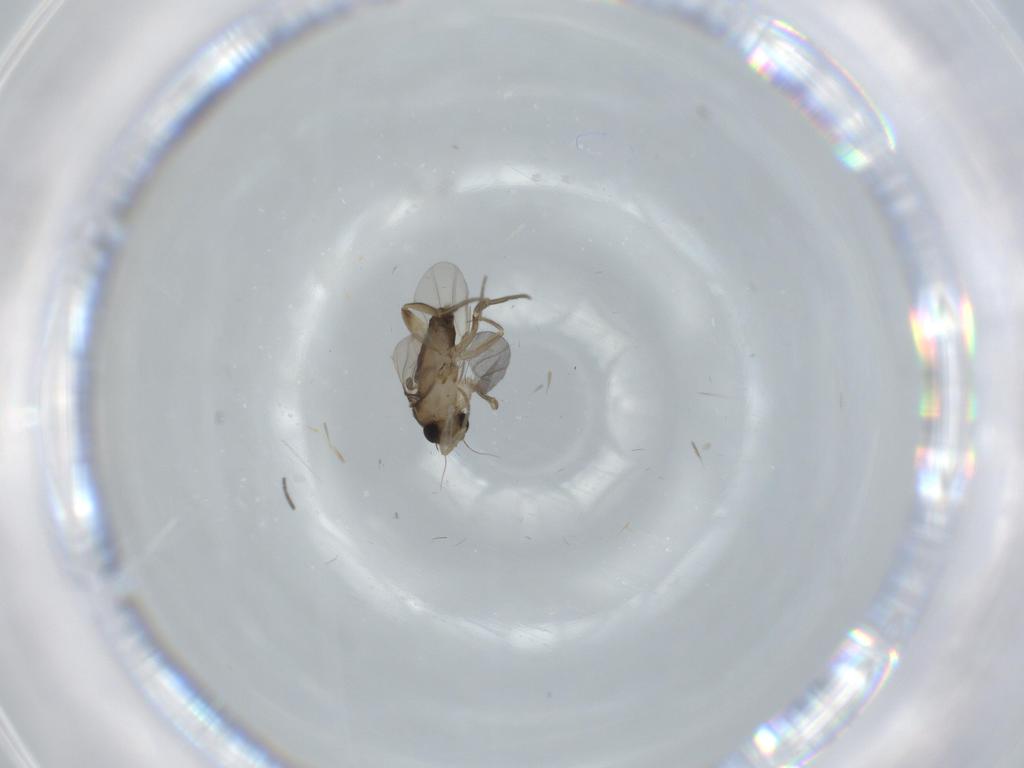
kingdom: Animalia
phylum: Arthropoda
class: Insecta
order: Diptera
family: Phoridae
